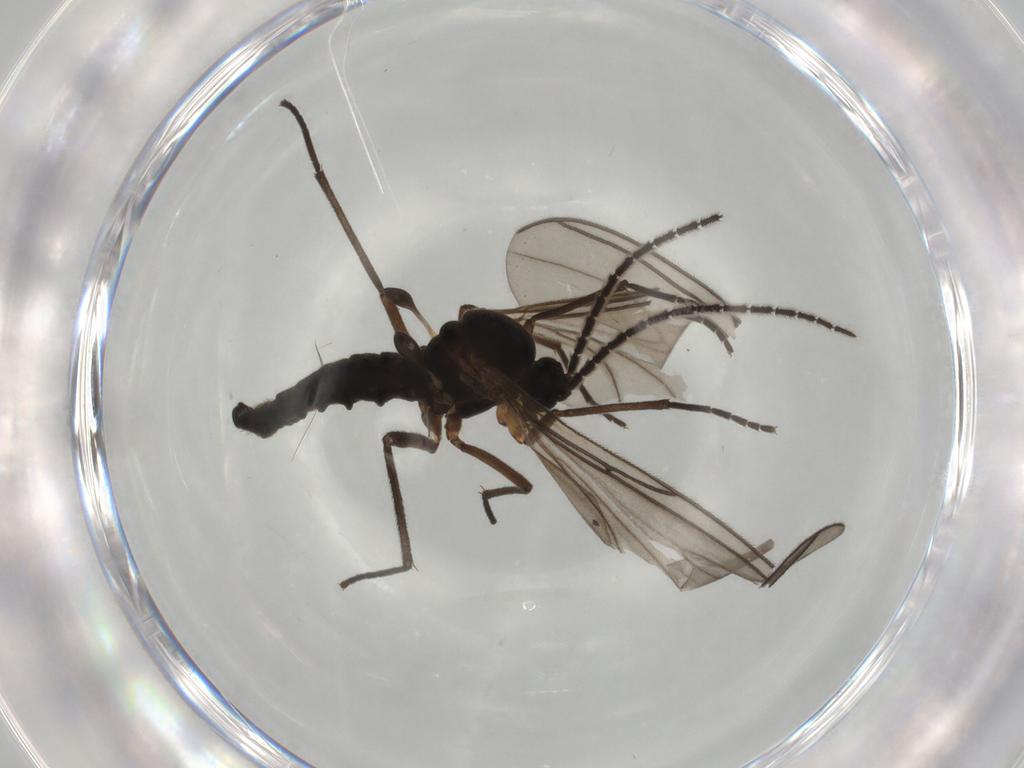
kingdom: Animalia
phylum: Arthropoda
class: Insecta
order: Diptera
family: Sciaridae
